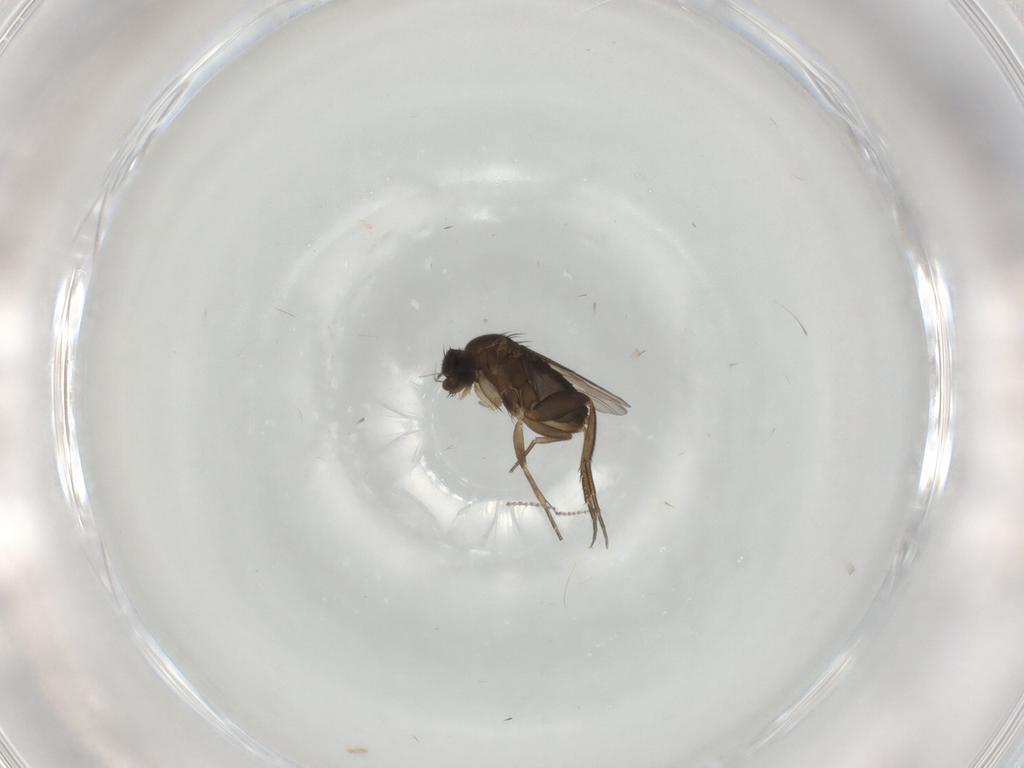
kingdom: Animalia
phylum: Arthropoda
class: Insecta
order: Diptera
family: Phoridae
